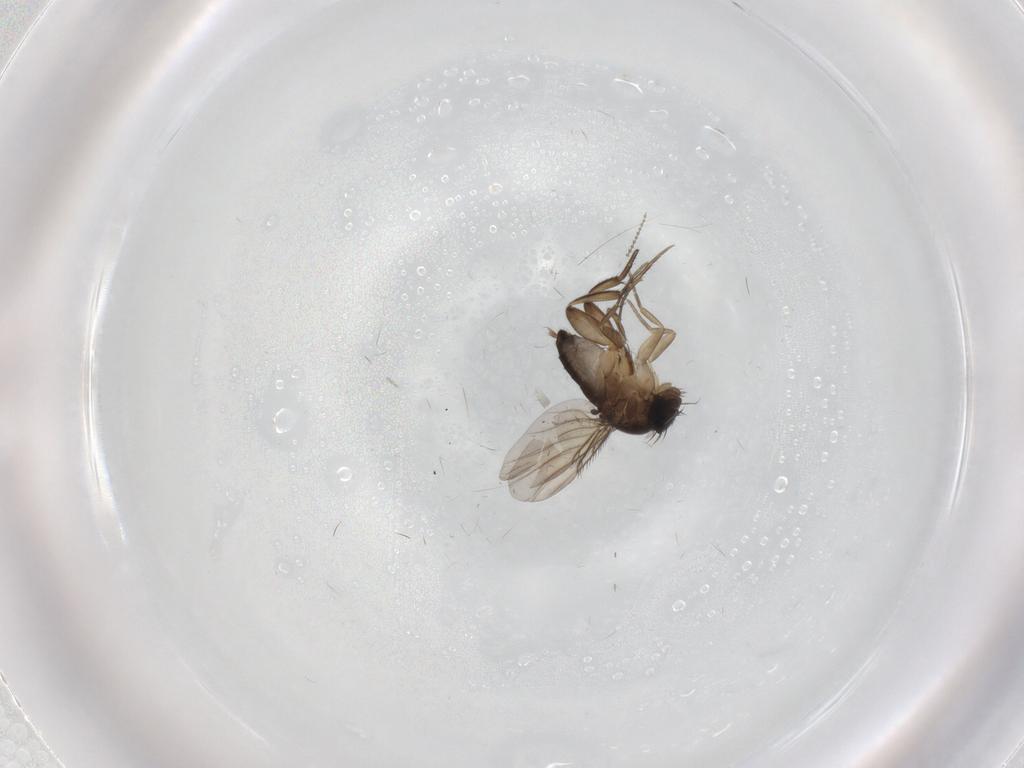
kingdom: Animalia
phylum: Arthropoda
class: Insecta
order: Diptera
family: Phoridae
